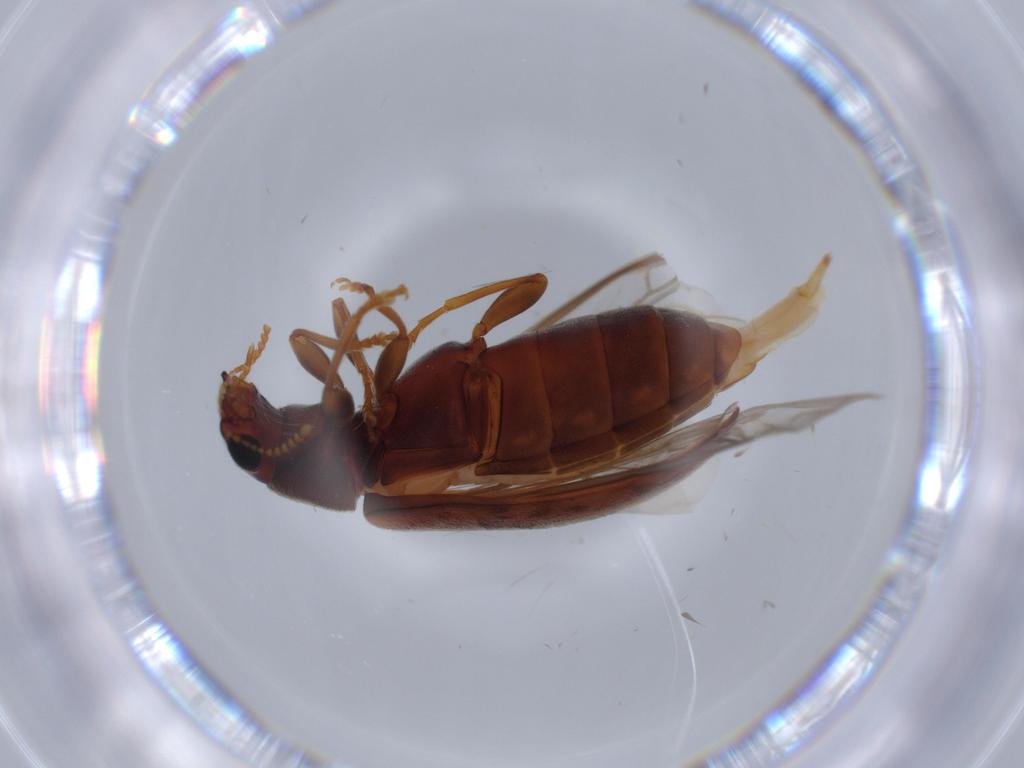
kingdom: Animalia
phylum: Arthropoda
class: Insecta
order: Coleoptera
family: Mycteridae
